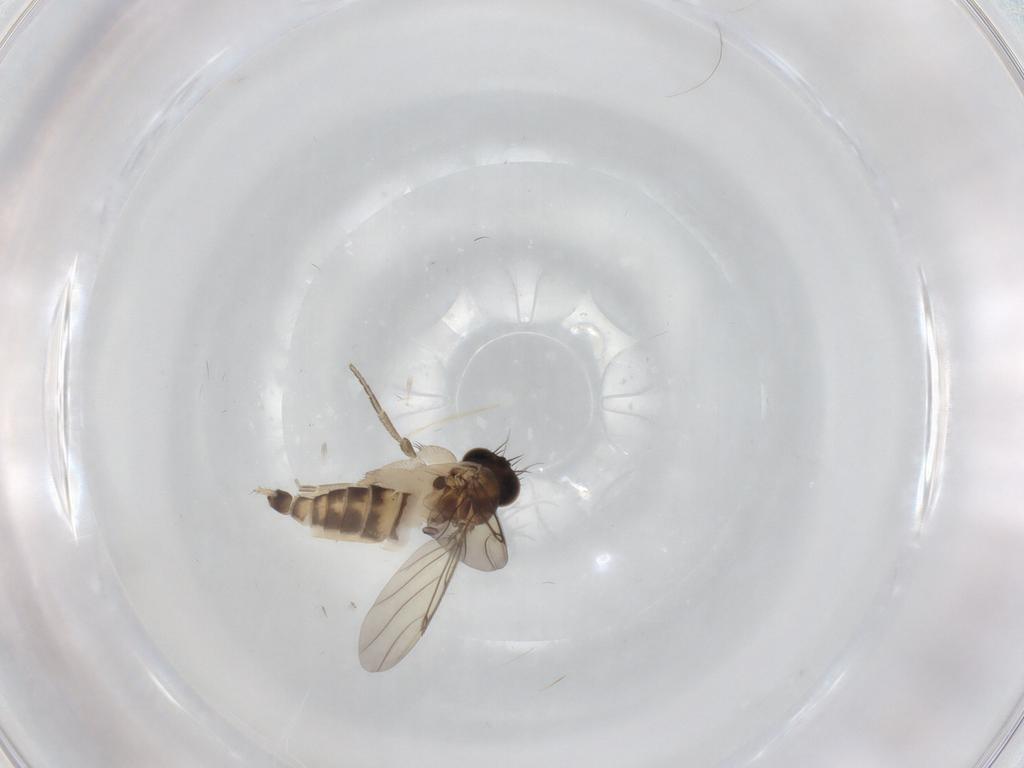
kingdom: Animalia
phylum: Arthropoda
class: Insecta
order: Diptera
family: Phoridae
